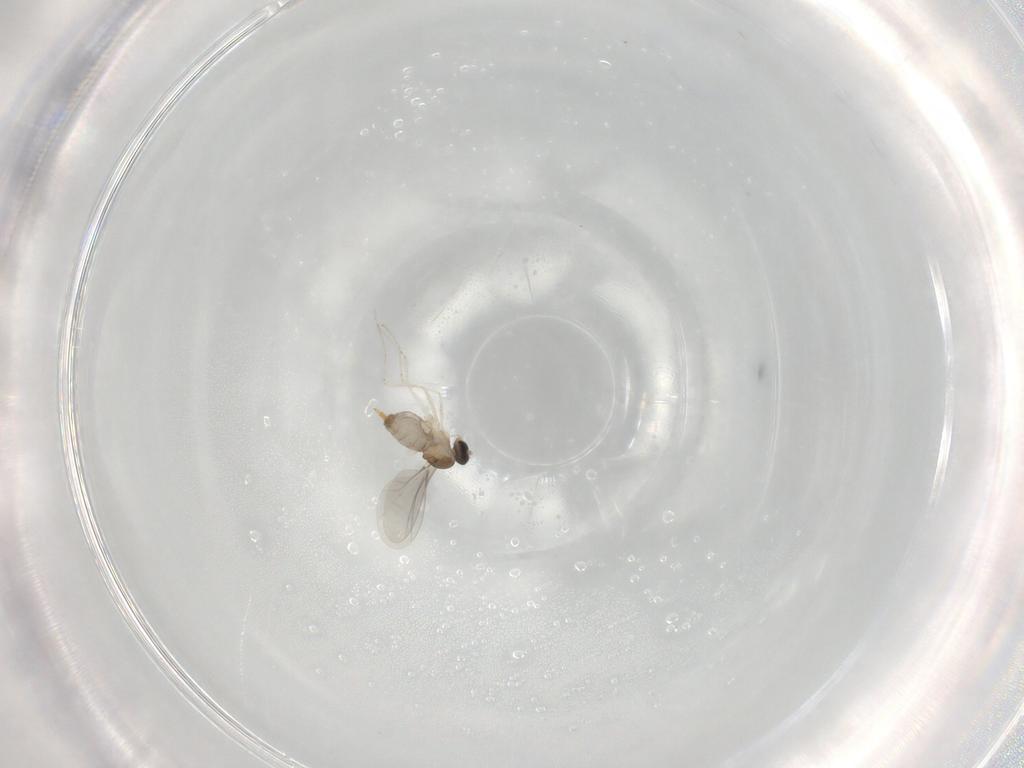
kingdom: Animalia
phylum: Arthropoda
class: Insecta
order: Diptera
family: Cecidomyiidae
